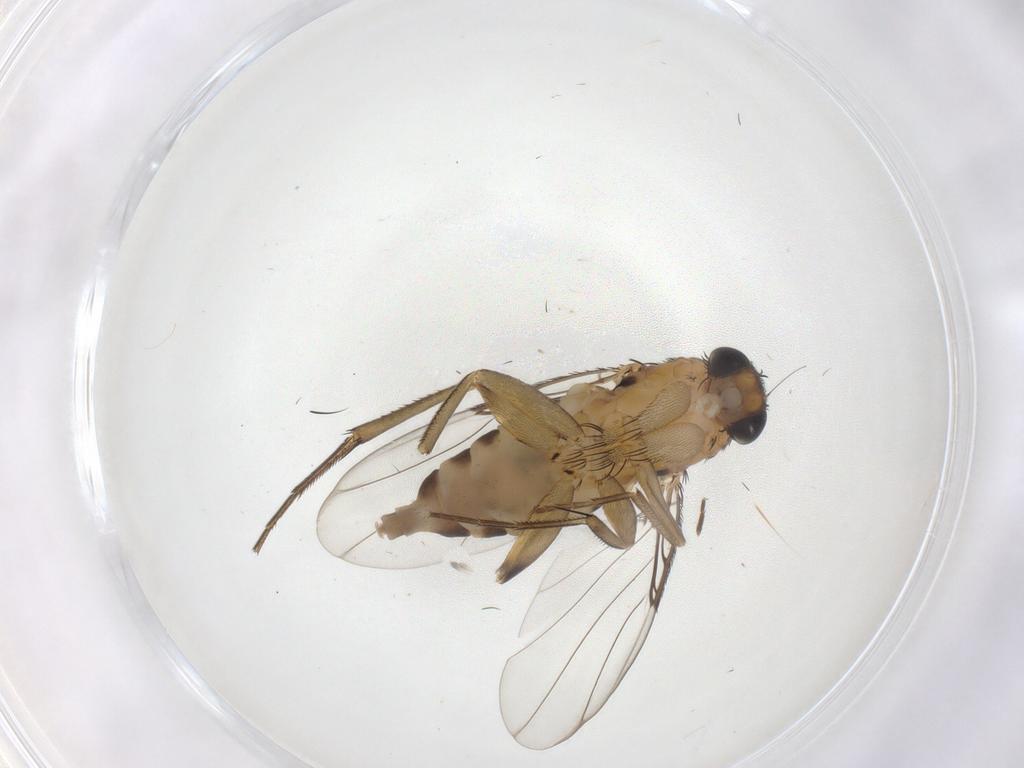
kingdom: Animalia
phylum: Arthropoda
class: Insecta
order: Diptera
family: Phoridae
